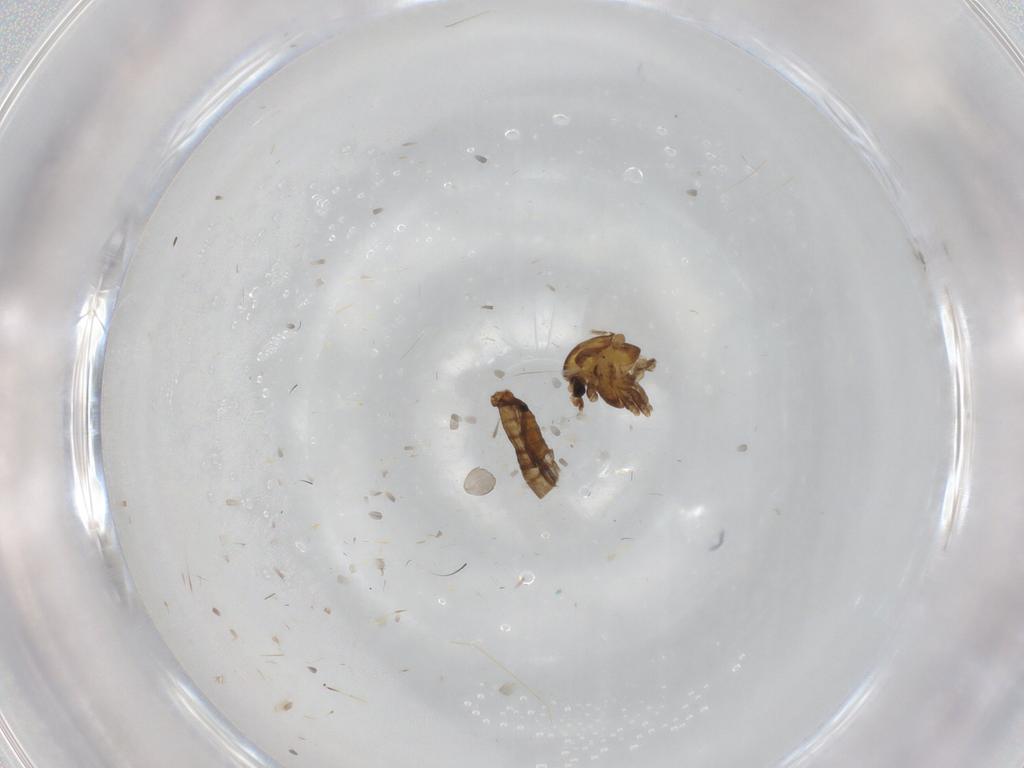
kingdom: Animalia
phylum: Arthropoda
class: Insecta
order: Diptera
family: Chironomidae
